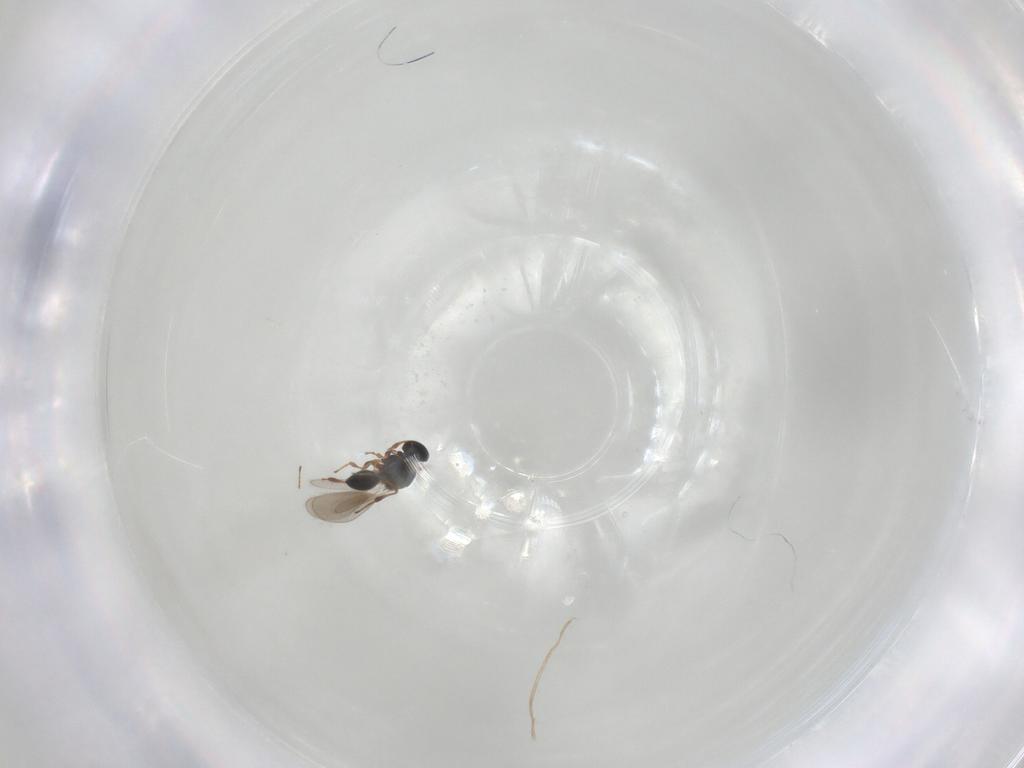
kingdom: Animalia
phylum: Arthropoda
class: Insecta
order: Hymenoptera
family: Platygastridae
